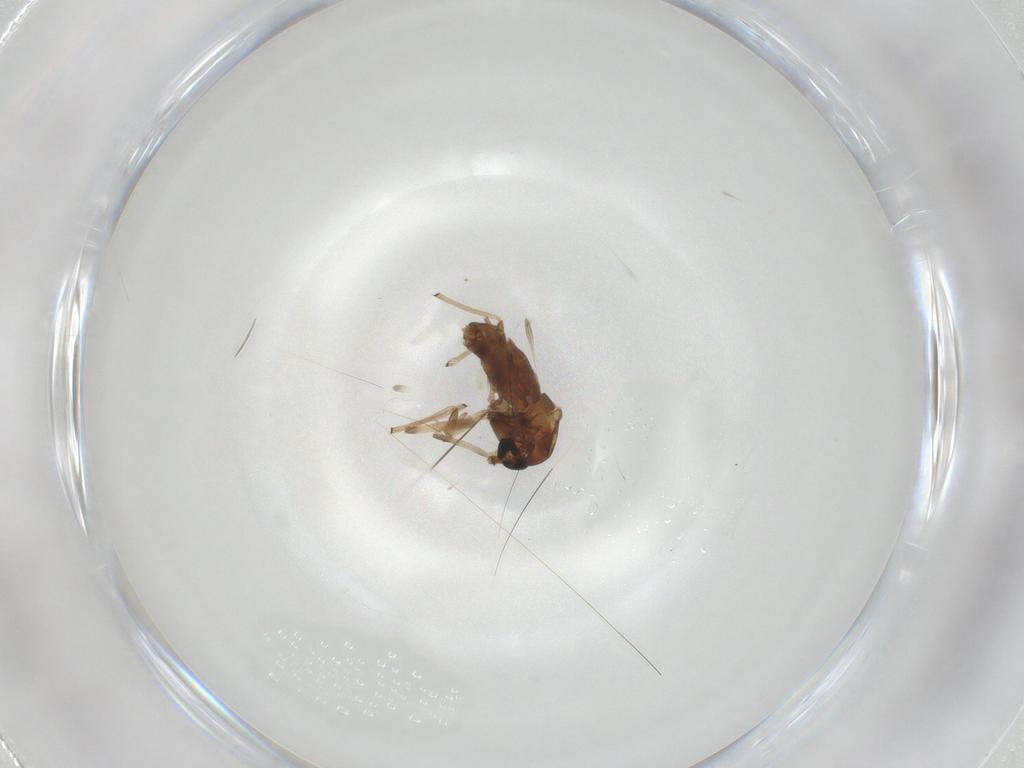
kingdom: Animalia
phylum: Arthropoda
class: Insecta
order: Diptera
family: Chironomidae
